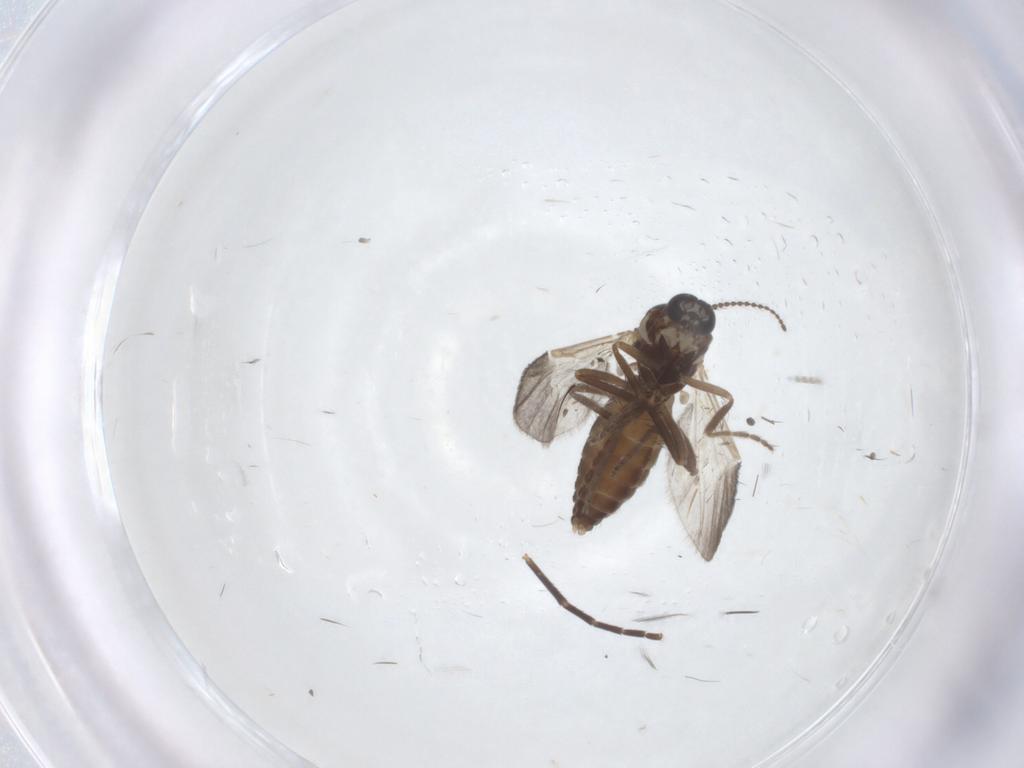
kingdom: Animalia
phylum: Arthropoda
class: Insecta
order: Diptera
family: Ceratopogonidae
